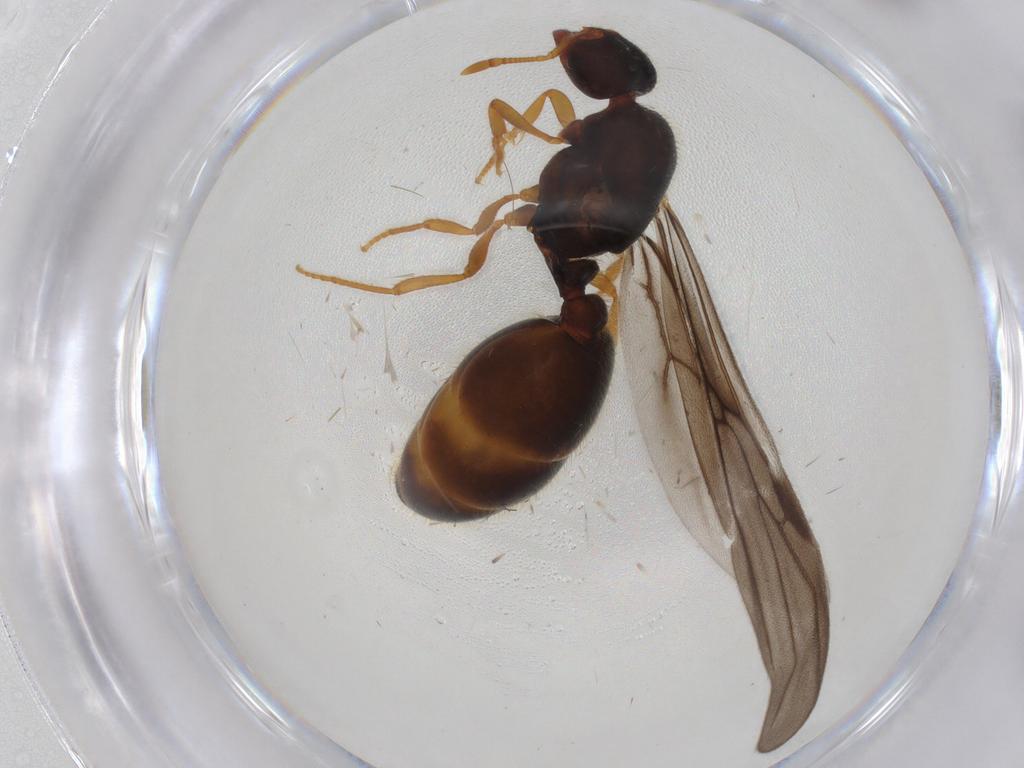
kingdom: Animalia
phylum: Arthropoda
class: Insecta
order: Hymenoptera
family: Formicidae
